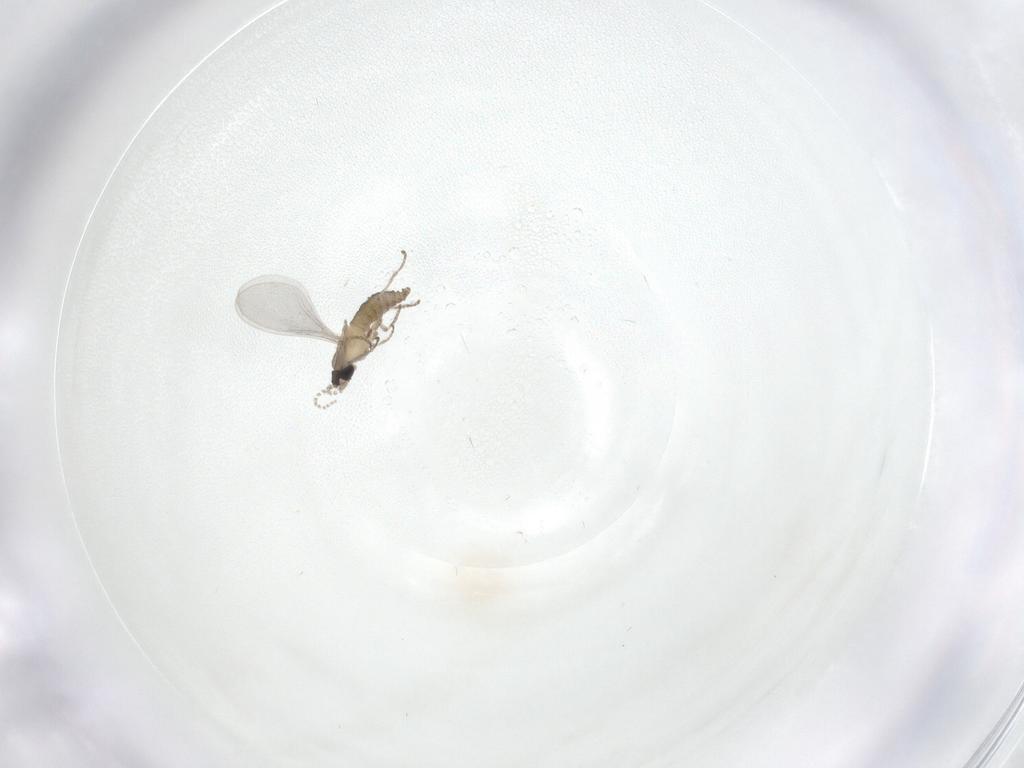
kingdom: Animalia
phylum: Arthropoda
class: Insecta
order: Diptera
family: Cecidomyiidae
